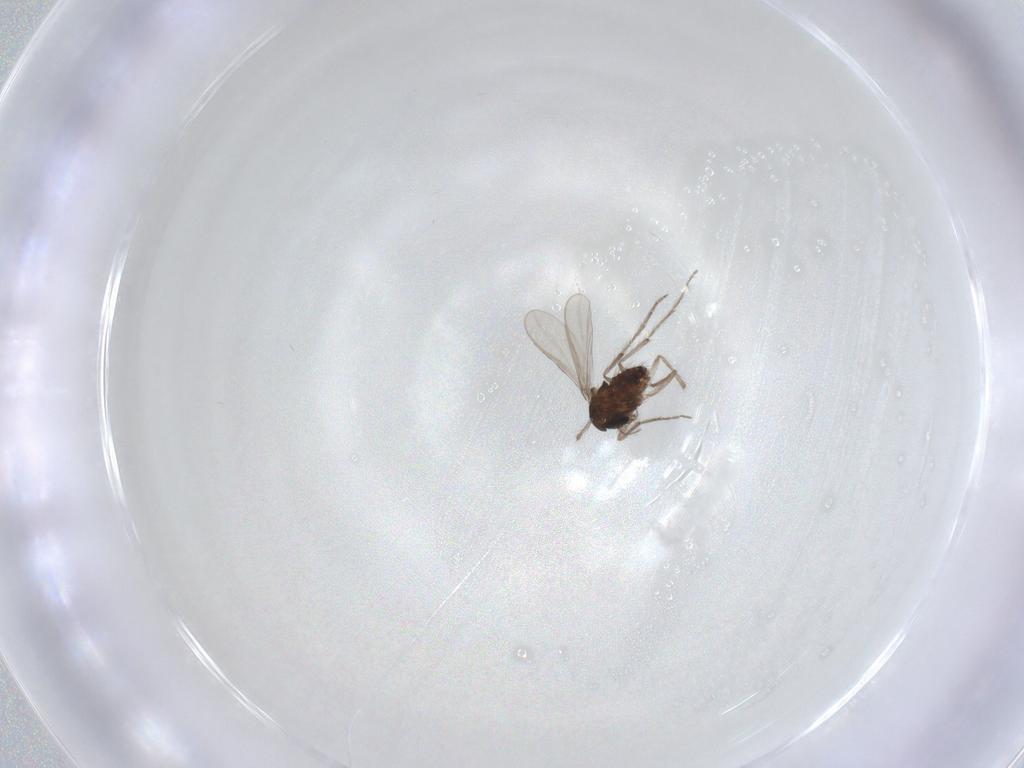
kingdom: Animalia
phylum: Arthropoda
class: Insecta
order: Diptera
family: Chironomidae
